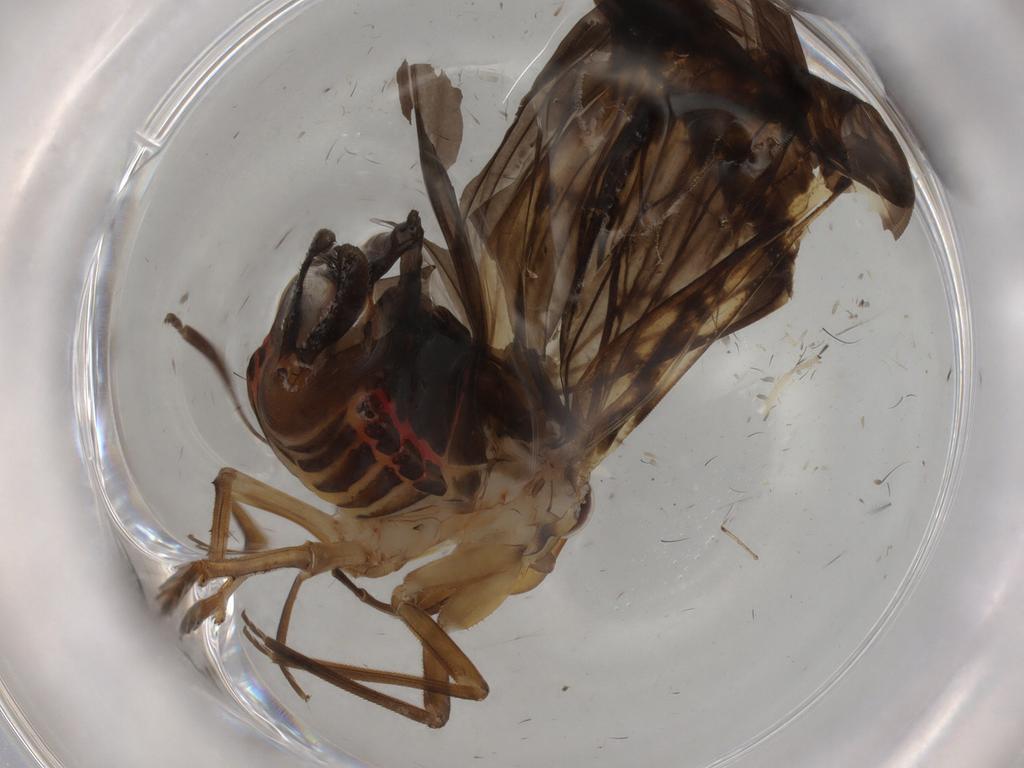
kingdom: Animalia
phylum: Arthropoda
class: Insecta
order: Hemiptera
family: Cixiidae
